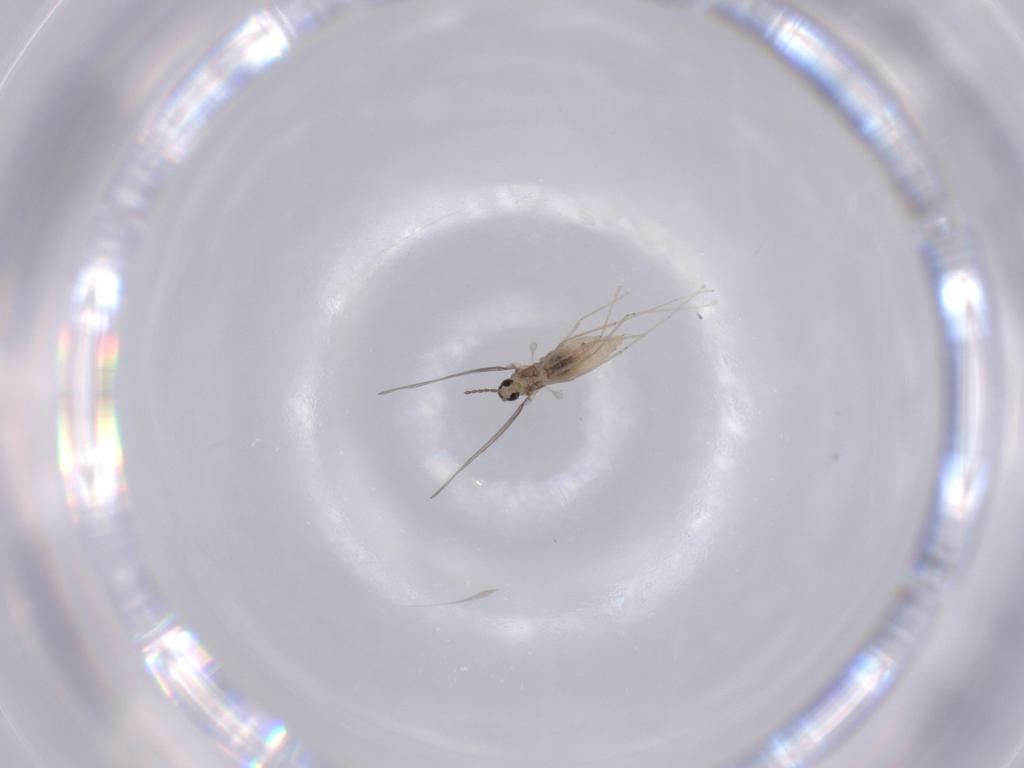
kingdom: Animalia
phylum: Arthropoda
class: Insecta
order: Diptera
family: Cecidomyiidae
